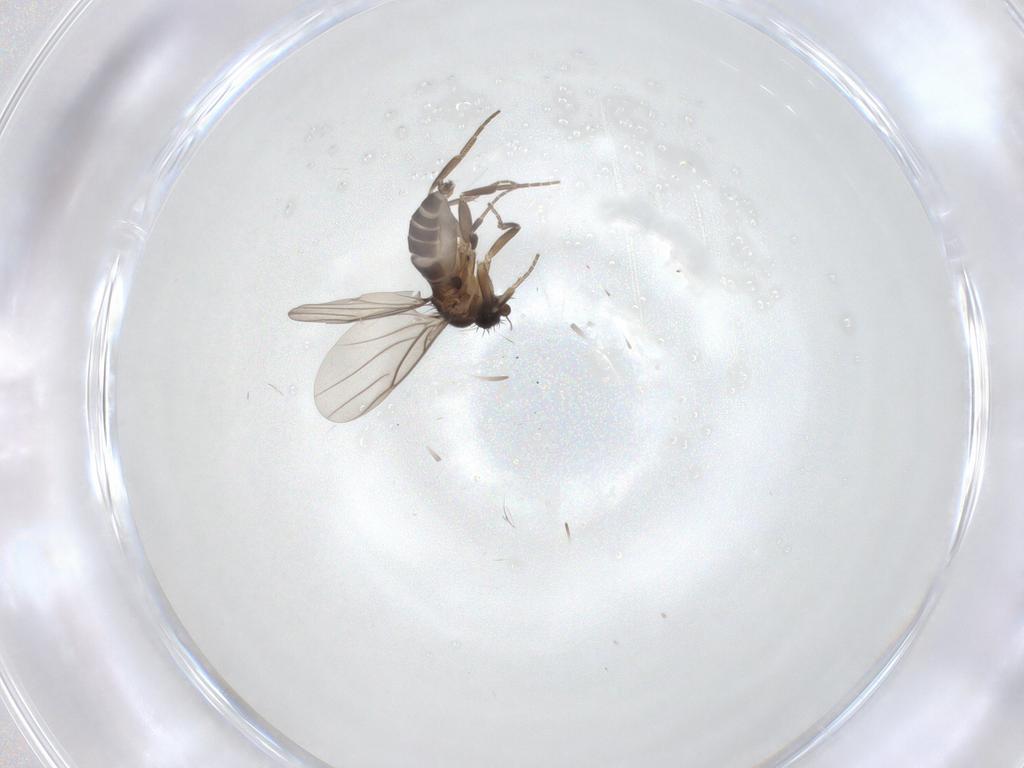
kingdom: Animalia
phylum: Arthropoda
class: Insecta
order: Diptera
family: Phoridae
